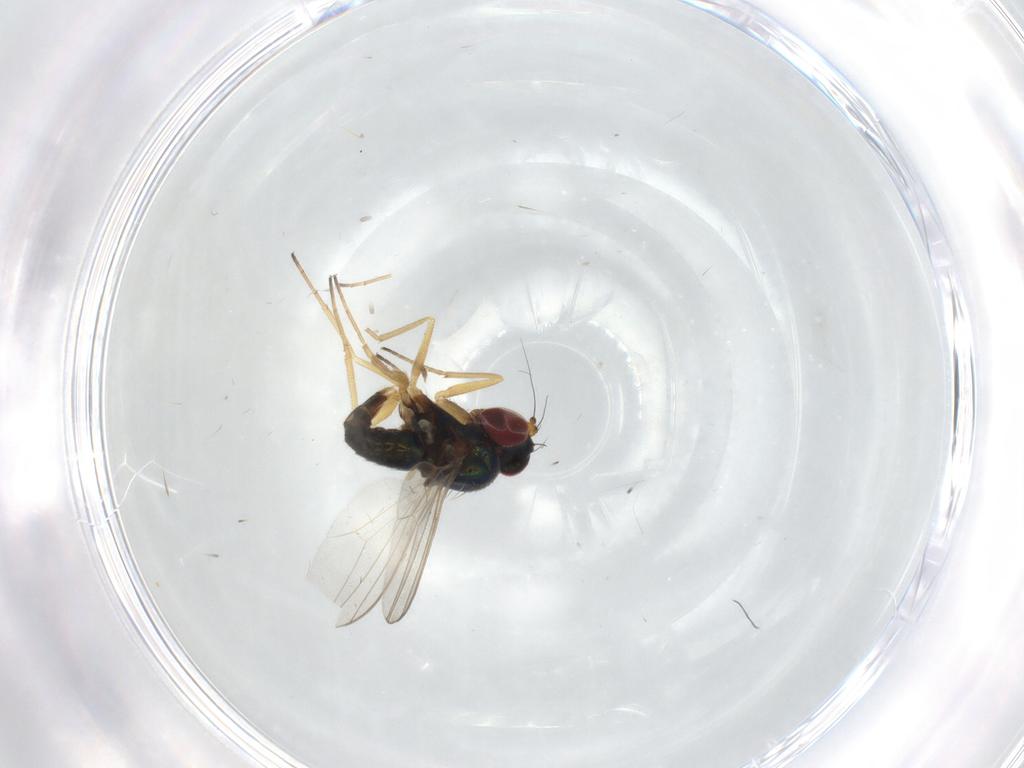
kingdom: Animalia
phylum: Arthropoda
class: Insecta
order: Diptera
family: Dolichopodidae
